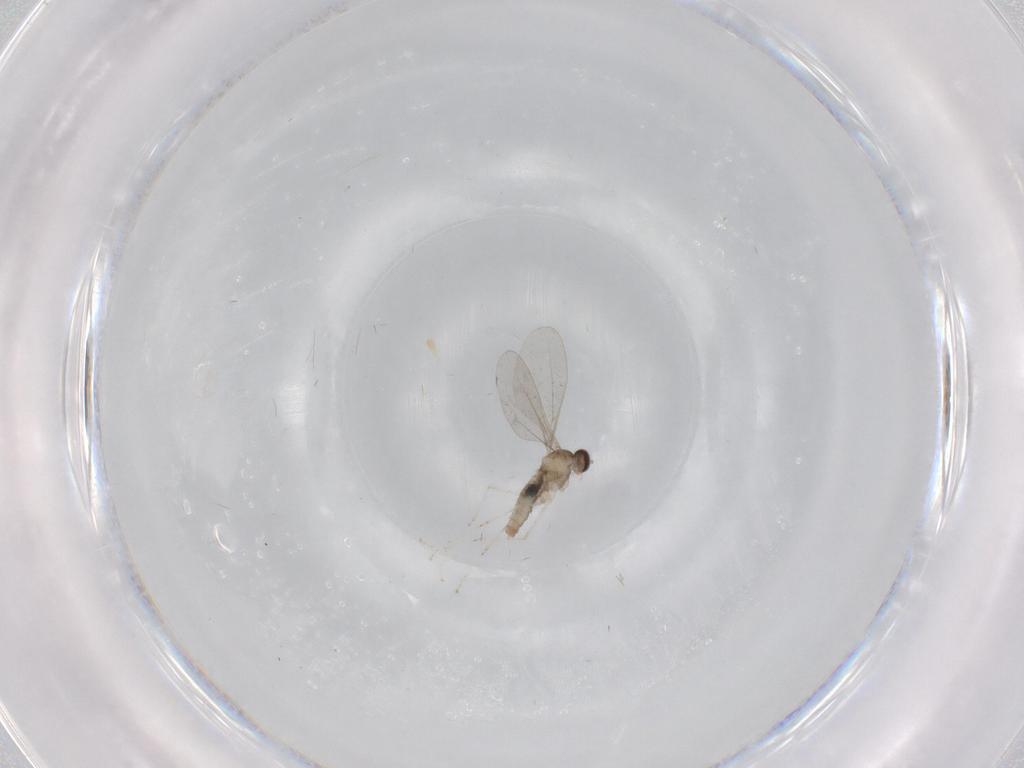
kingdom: Animalia
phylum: Arthropoda
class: Insecta
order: Diptera
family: Cecidomyiidae
